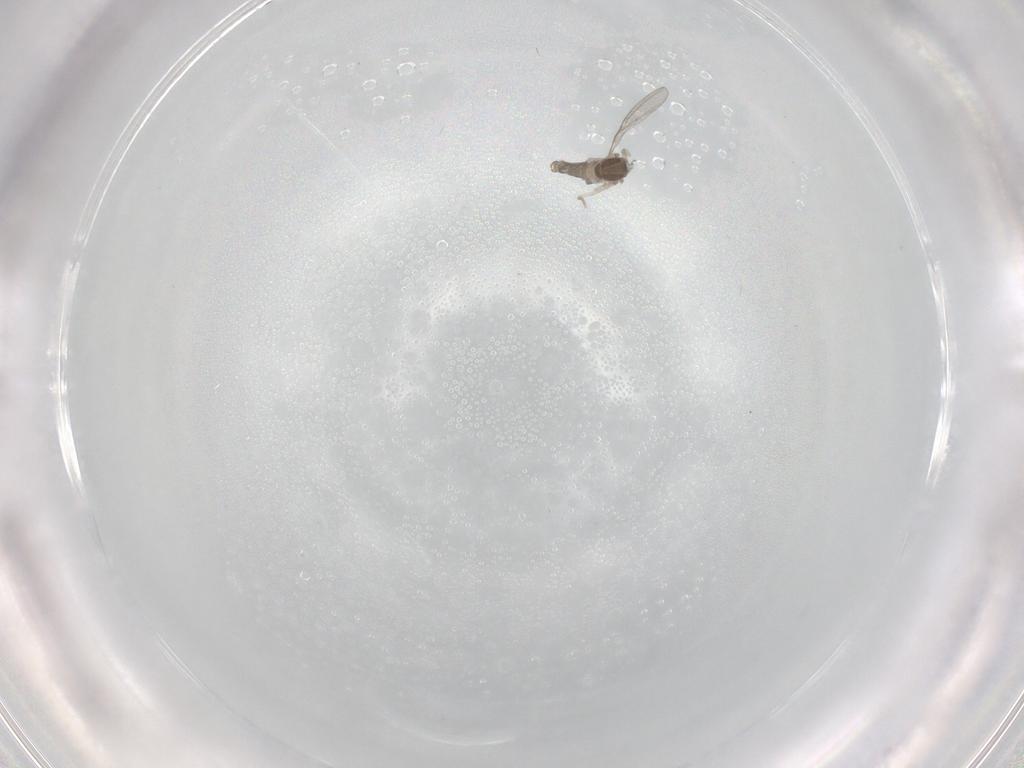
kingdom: Animalia
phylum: Arthropoda
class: Insecta
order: Diptera
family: Cecidomyiidae
